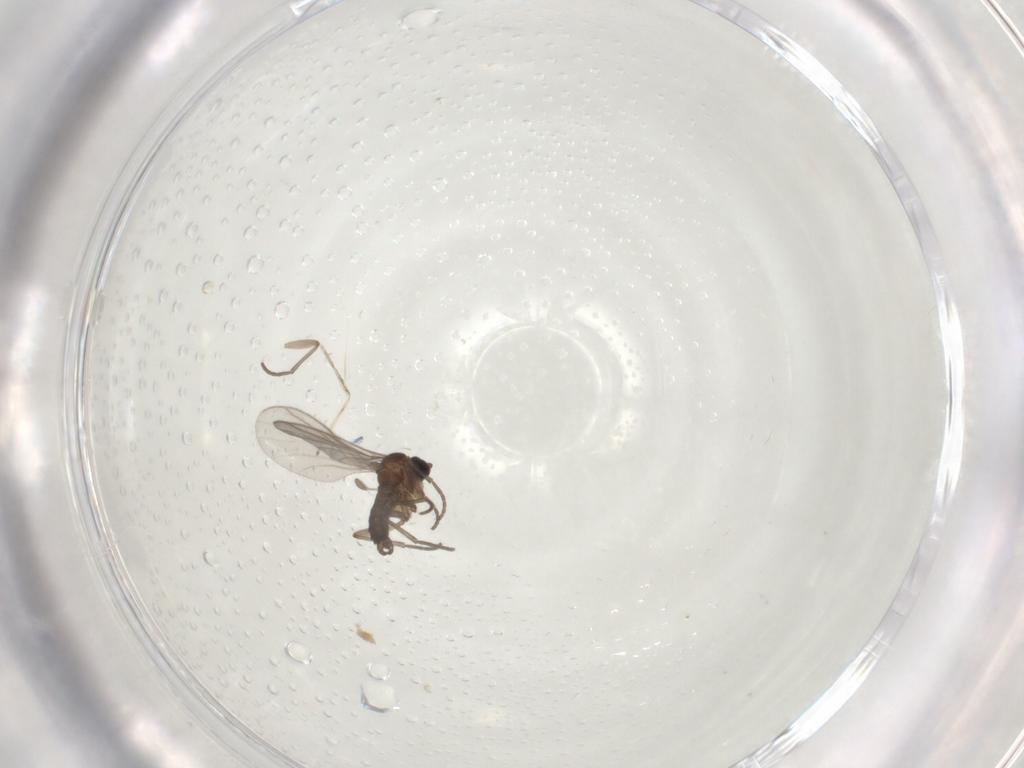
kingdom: Animalia
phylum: Arthropoda
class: Insecta
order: Diptera
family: Cecidomyiidae
